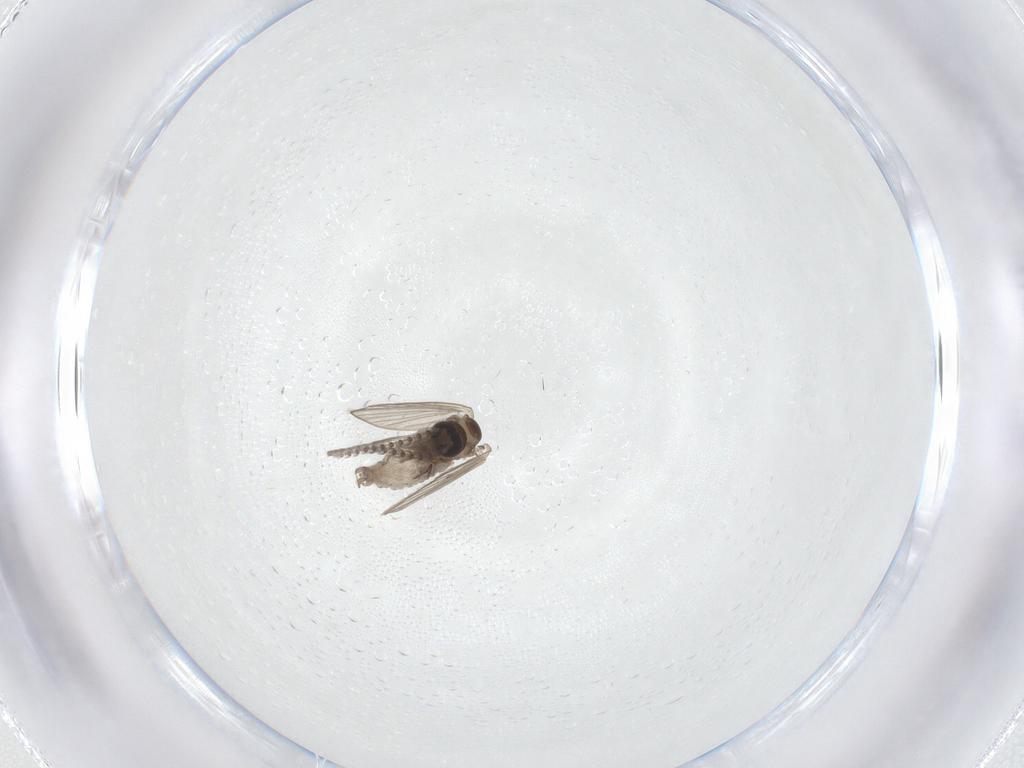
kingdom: Animalia
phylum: Arthropoda
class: Insecta
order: Diptera
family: Psychodidae
